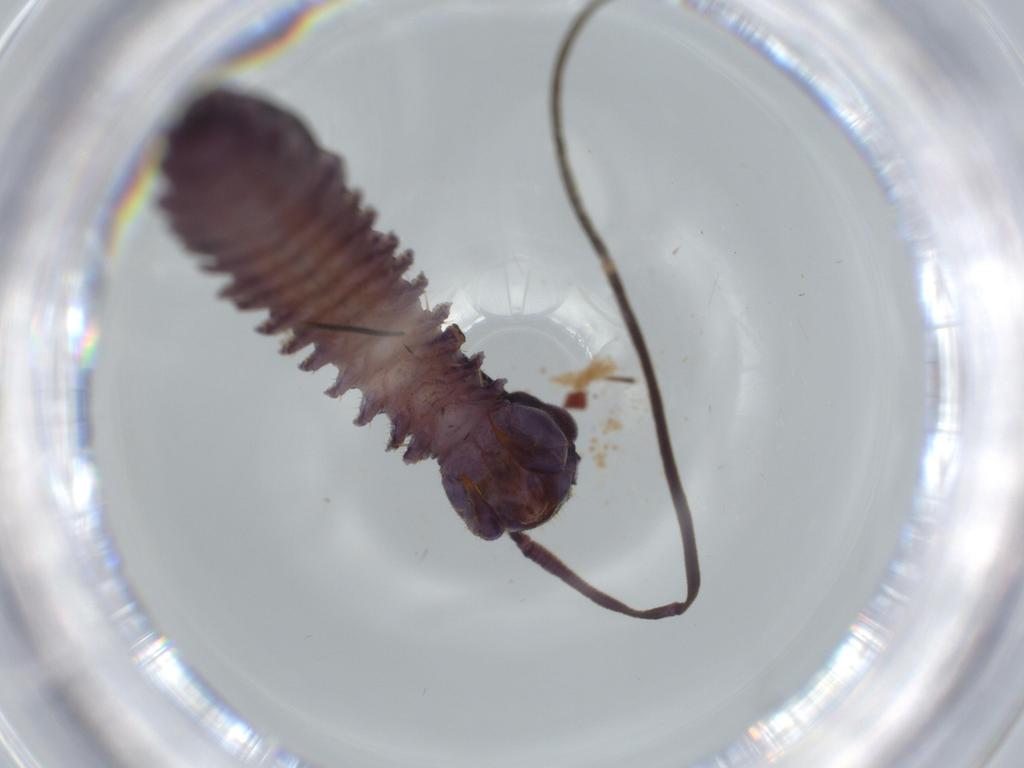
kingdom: Animalia
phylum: Arthropoda
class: Chilopoda
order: Scutigeromorpha
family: Scutigeridae
